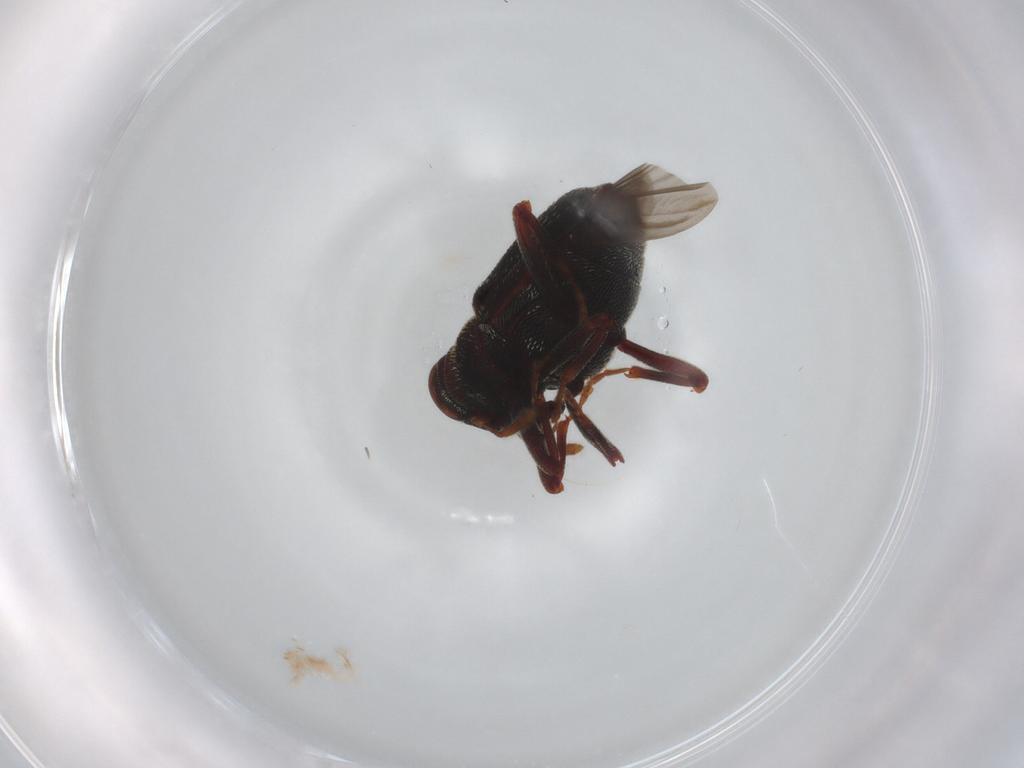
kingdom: Animalia
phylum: Arthropoda
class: Insecta
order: Coleoptera
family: Curculionidae
